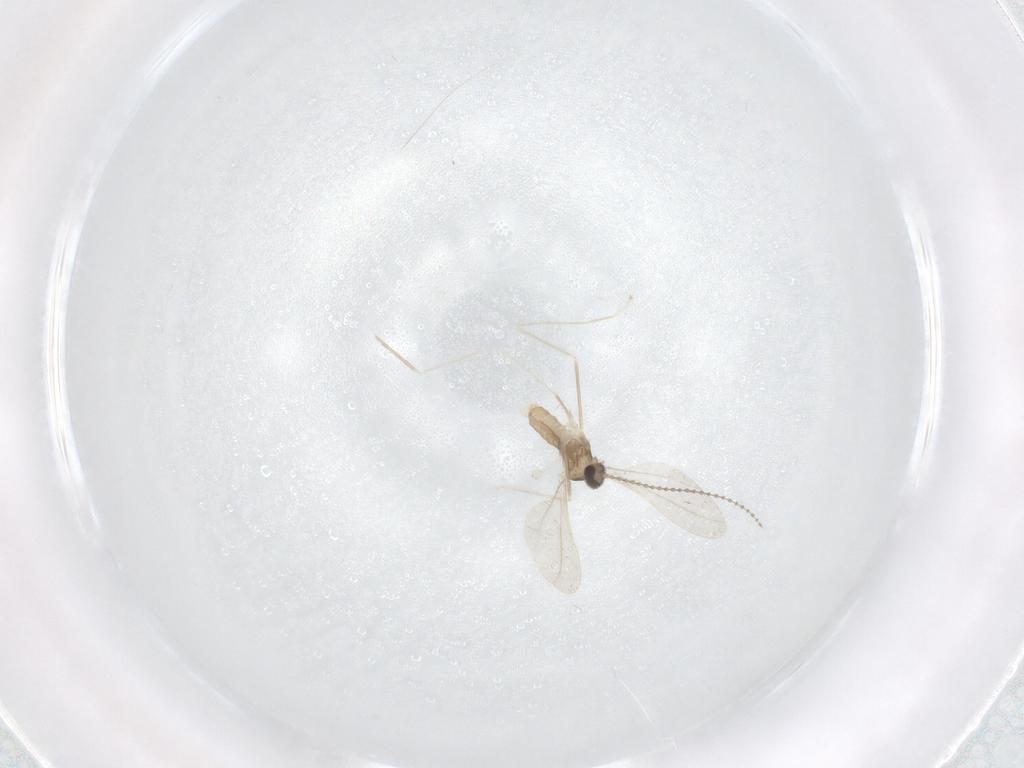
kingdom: Animalia
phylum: Arthropoda
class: Insecta
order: Diptera
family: Cecidomyiidae
